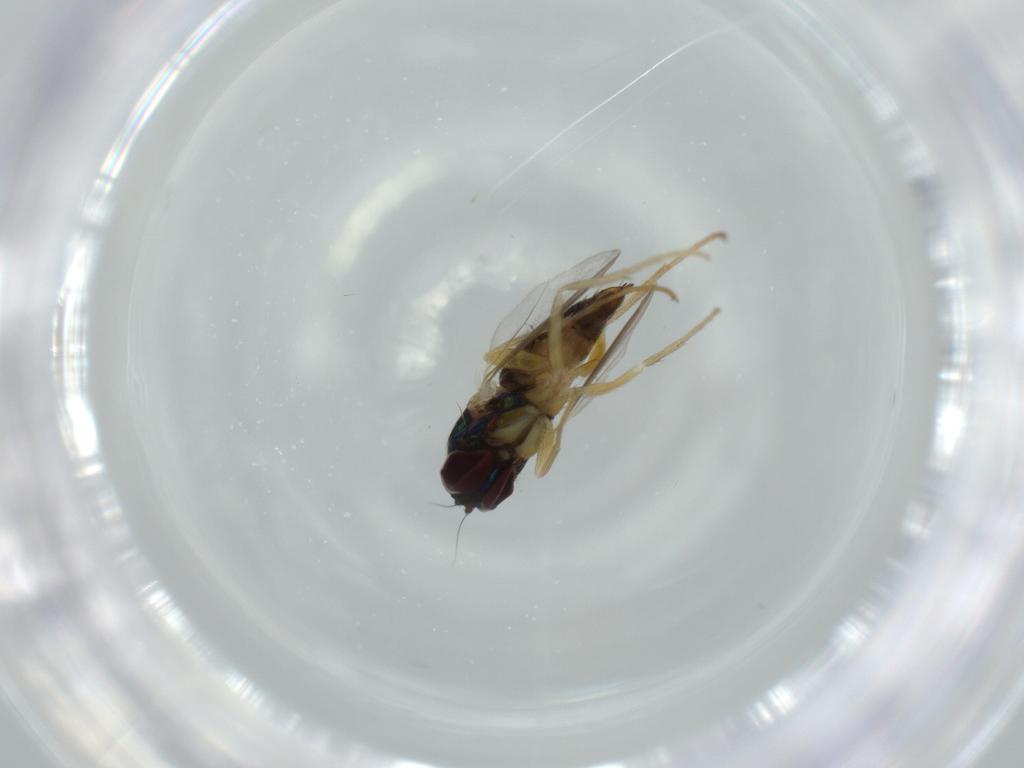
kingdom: Animalia
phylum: Arthropoda
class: Insecta
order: Diptera
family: Dolichopodidae
